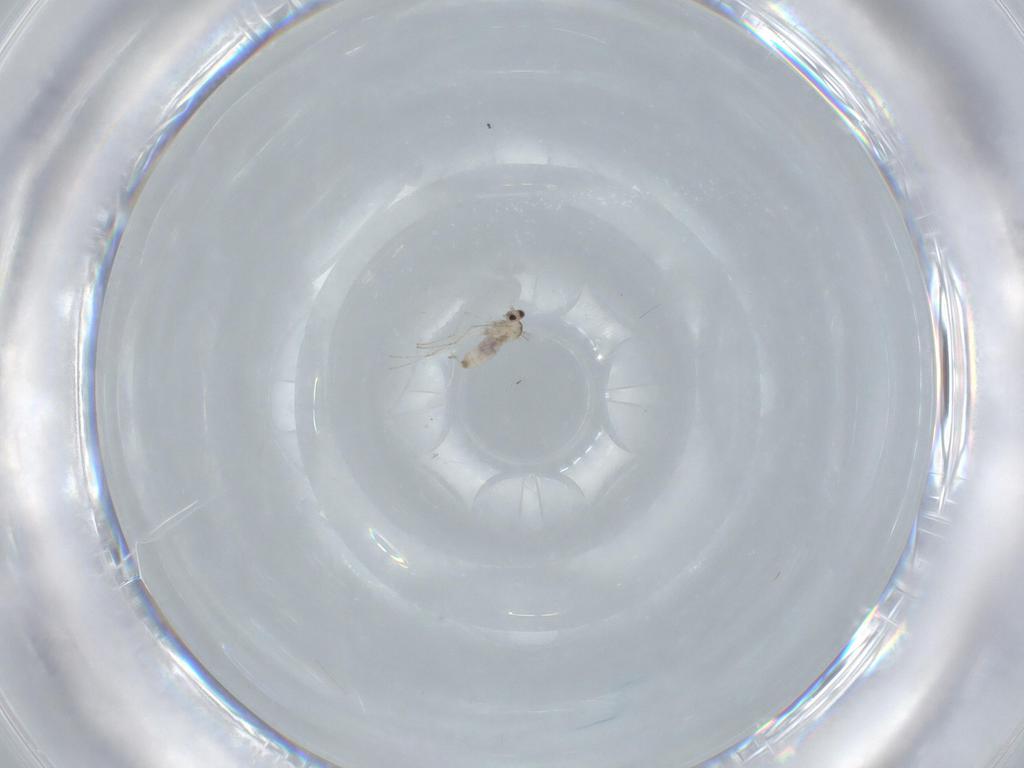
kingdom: Animalia
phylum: Arthropoda
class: Insecta
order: Diptera
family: Cecidomyiidae
